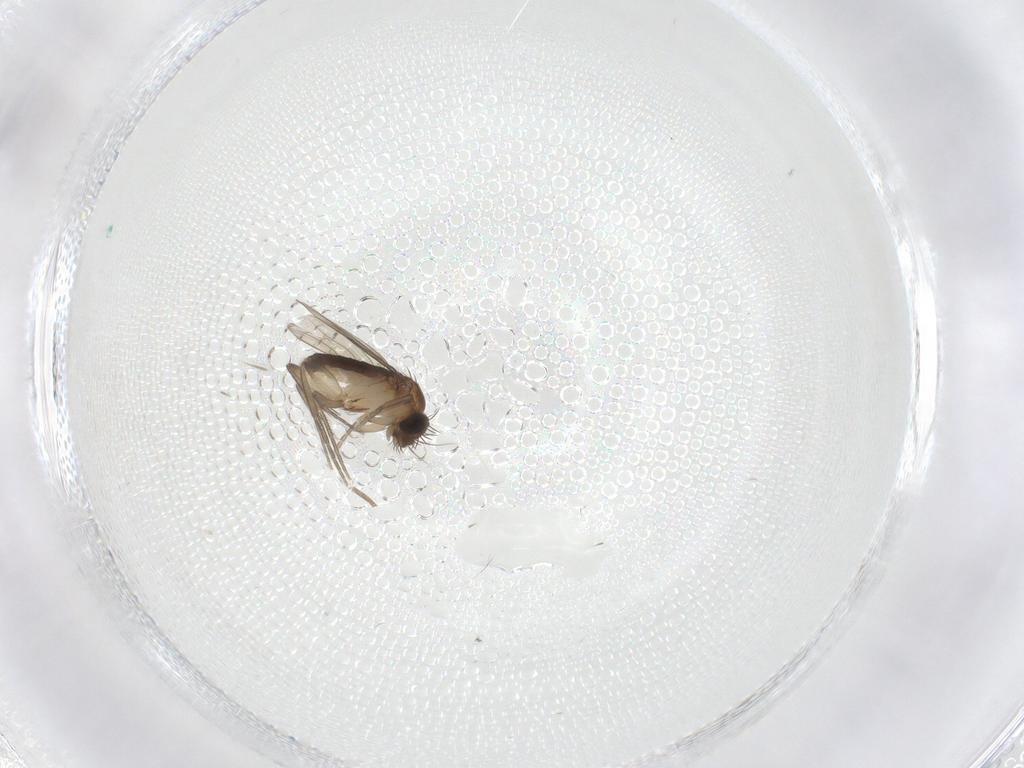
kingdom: Animalia
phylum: Arthropoda
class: Insecta
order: Diptera
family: Phoridae
